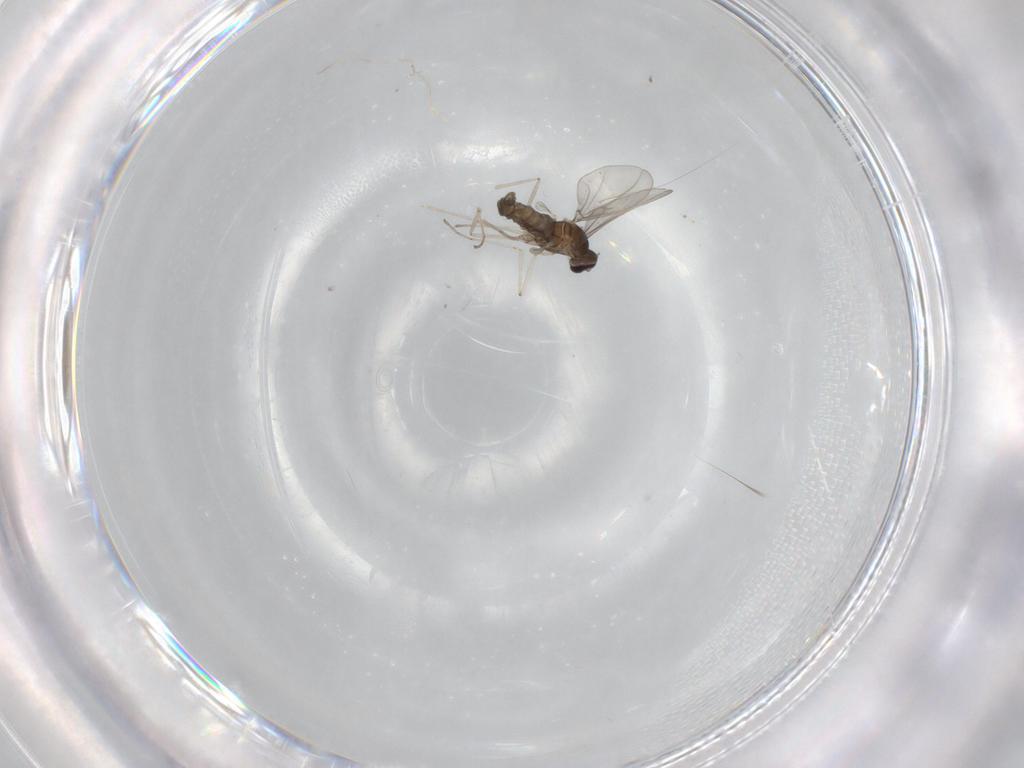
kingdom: Animalia
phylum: Arthropoda
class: Insecta
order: Diptera
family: Cecidomyiidae
